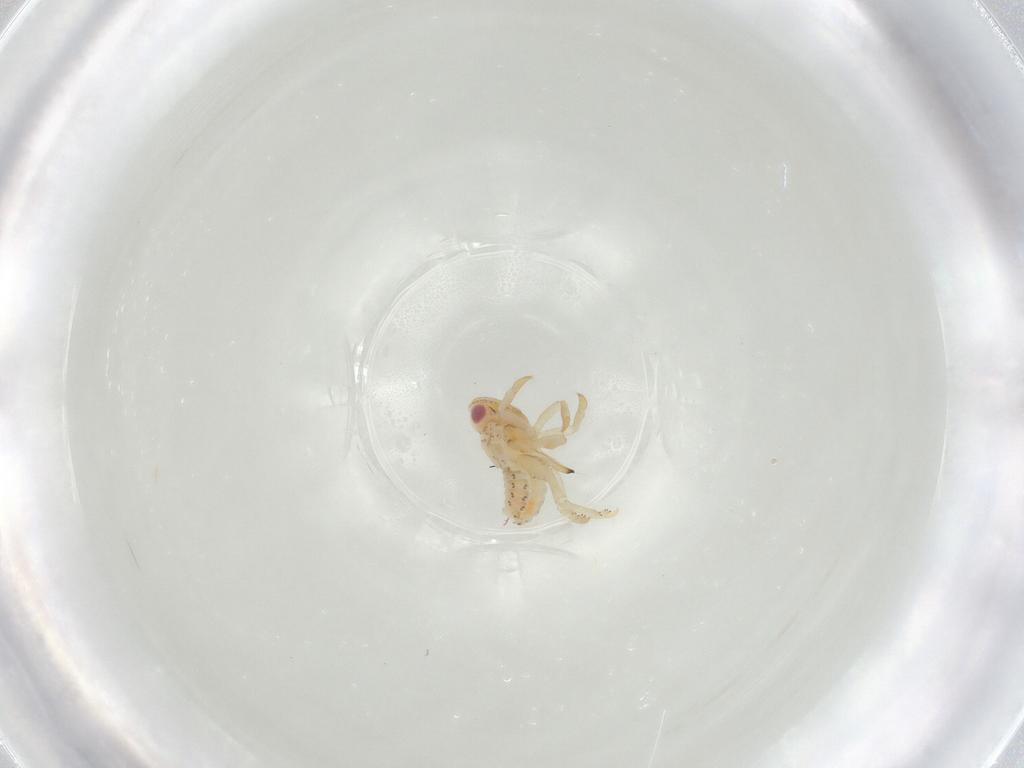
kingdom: Animalia
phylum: Arthropoda
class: Insecta
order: Hemiptera
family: Tropiduchidae
